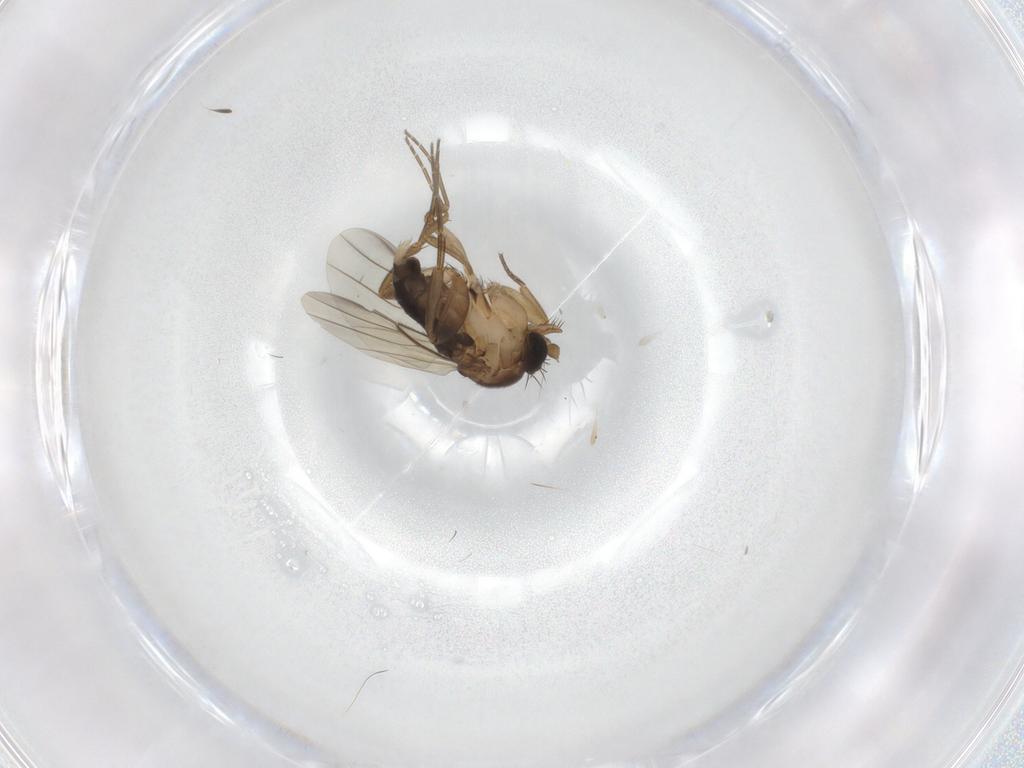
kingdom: Animalia
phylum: Arthropoda
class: Insecta
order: Diptera
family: Phoridae
